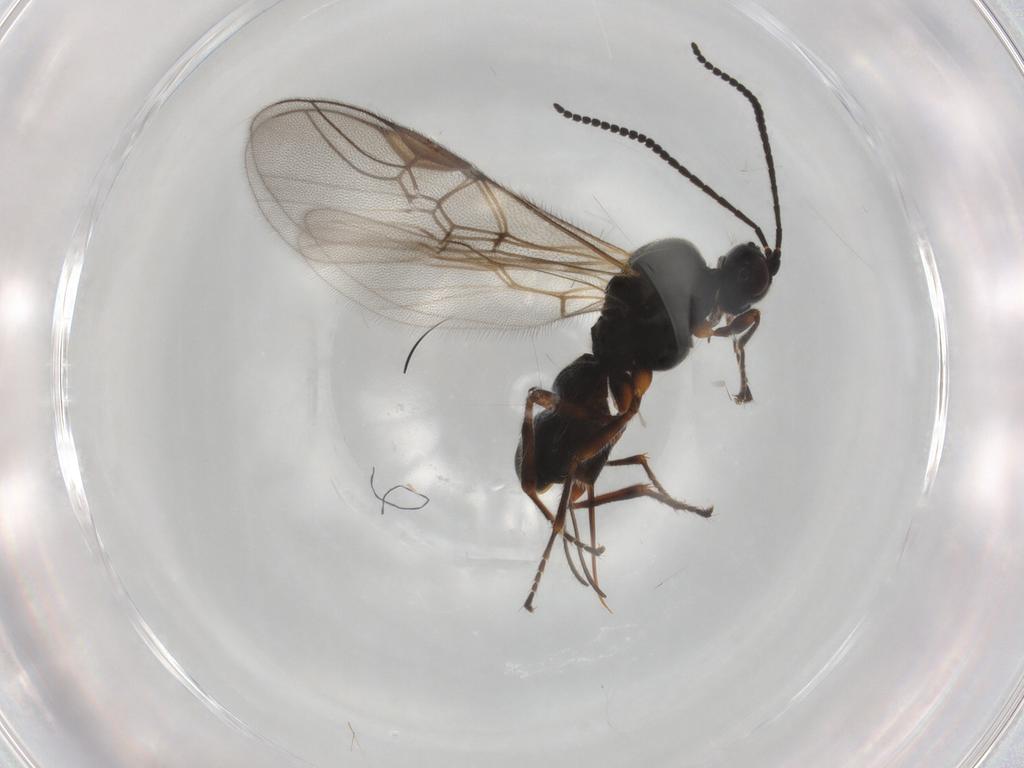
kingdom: Animalia
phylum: Arthropoda
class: Insecta
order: Hymenoptera
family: Braconidae
